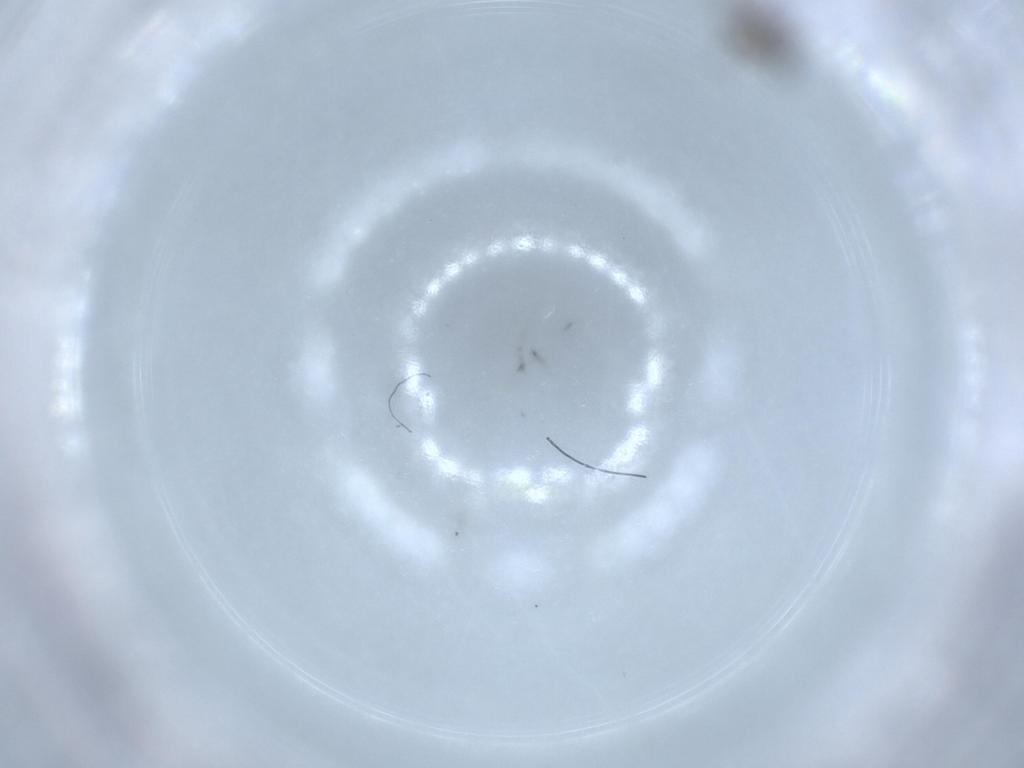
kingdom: Animalia
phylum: Arthropoda
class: Insecta
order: Diptera
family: Chironomidae
